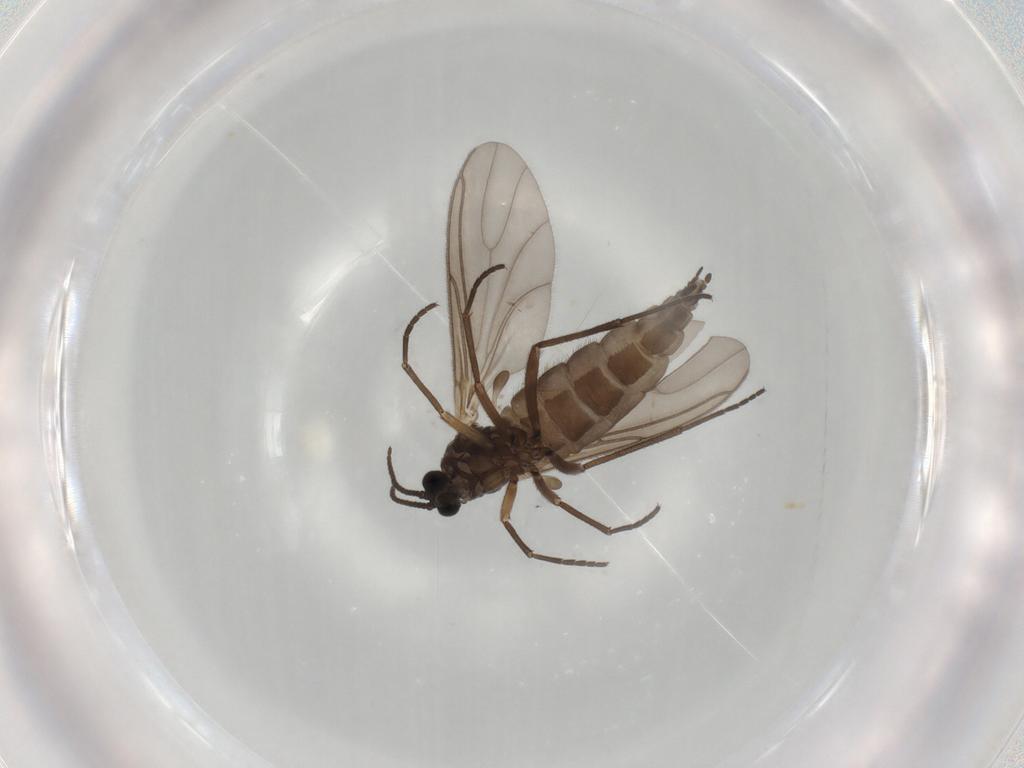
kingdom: Animalia
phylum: Arthropoda
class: Insecta
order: Diptera
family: Sciaridae
